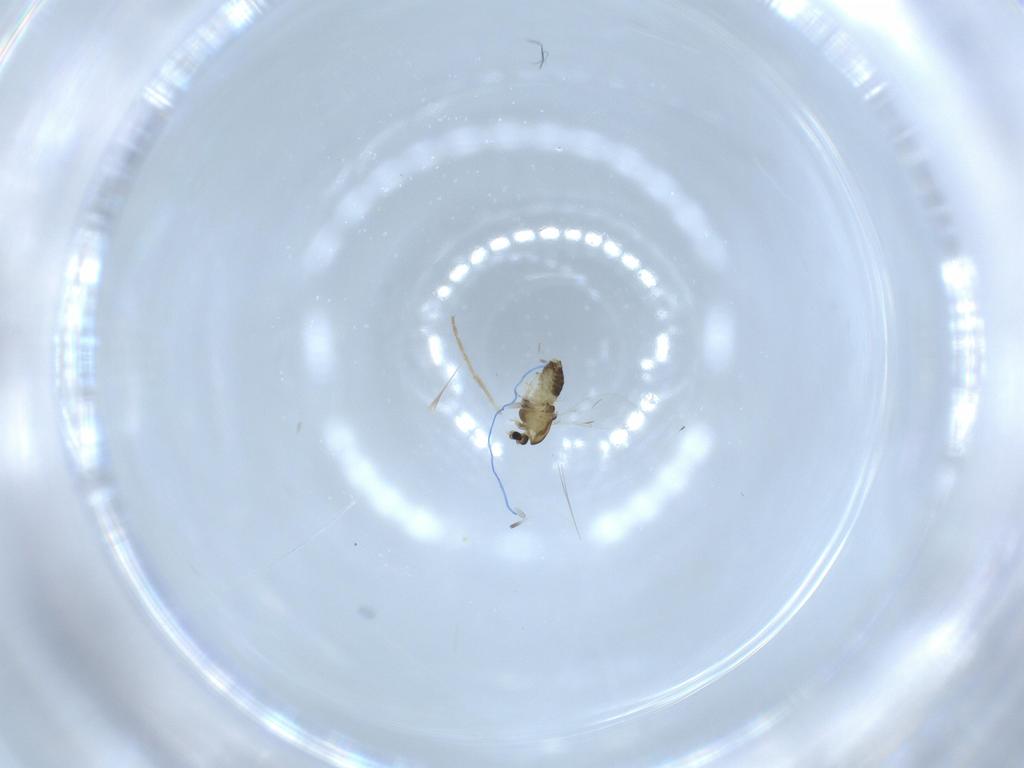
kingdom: Animalia
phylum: Arthropoda
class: Insecta
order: Diptera
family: Chironomidae
